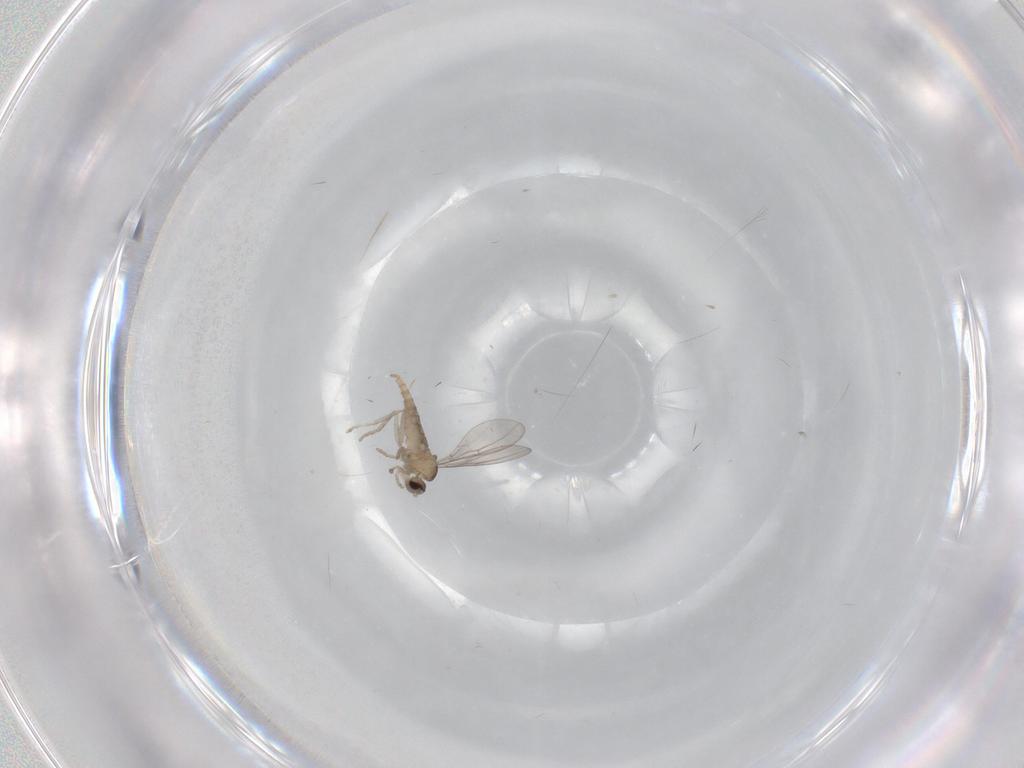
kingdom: Animalia
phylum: Arthropoda
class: Insecta
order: Diptera
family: Cecidomyiidae
